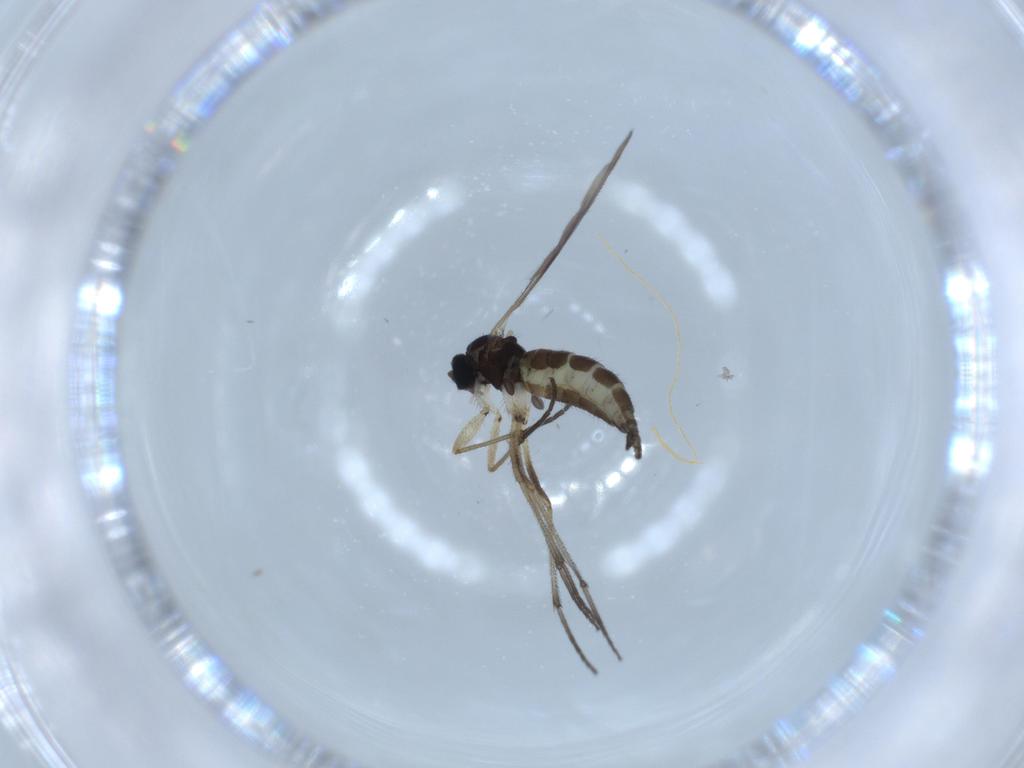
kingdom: Animalia
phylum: Arthropoda
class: Insecta
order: Diptera
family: Sciaridae
